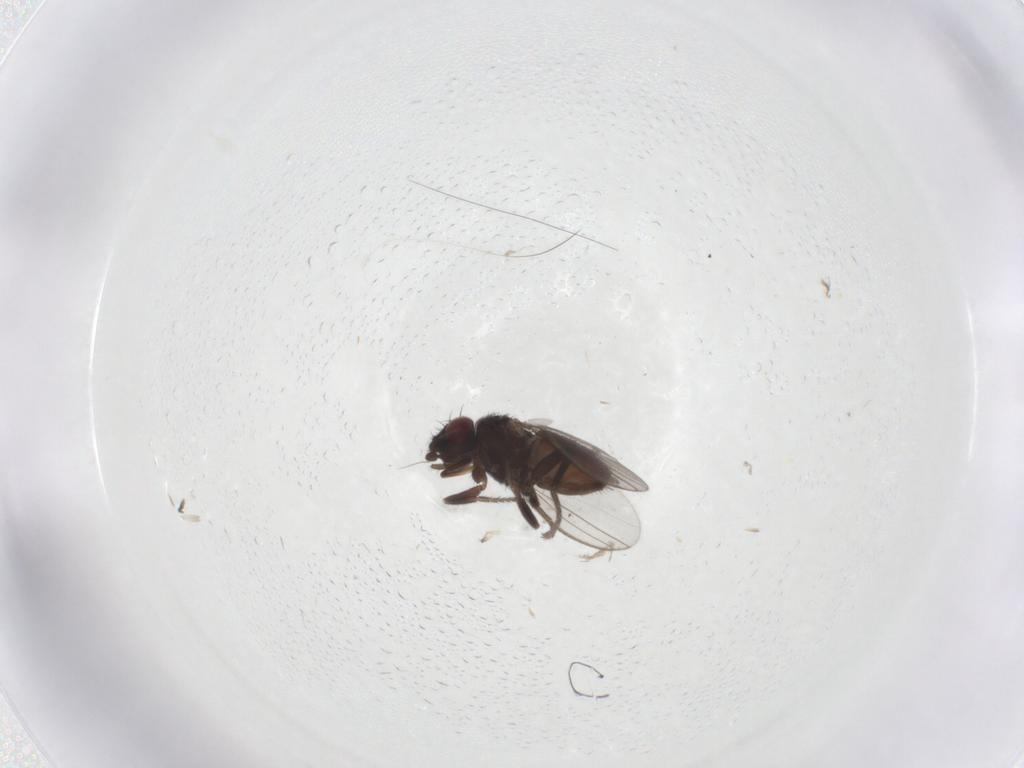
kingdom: Animalia
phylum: Arthropoda
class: Insecta
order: Diptera
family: Milichiidae
